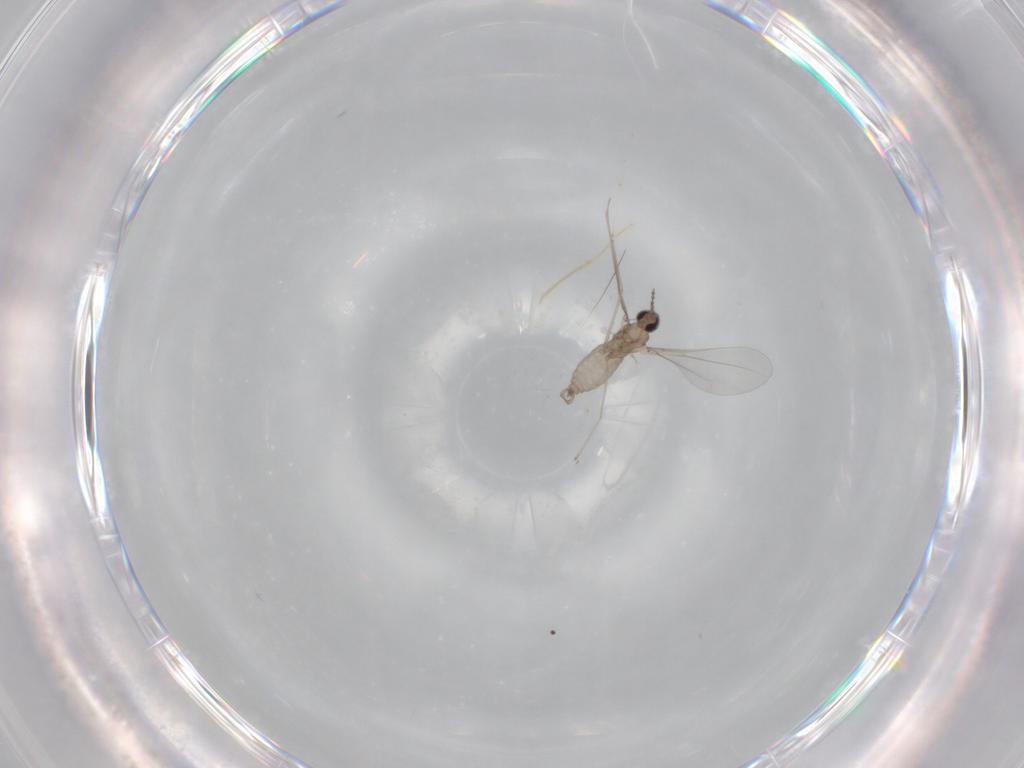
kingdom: Animalia
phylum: Arthropoda
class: Insecta
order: Diptera
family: Cecidomyiidae
